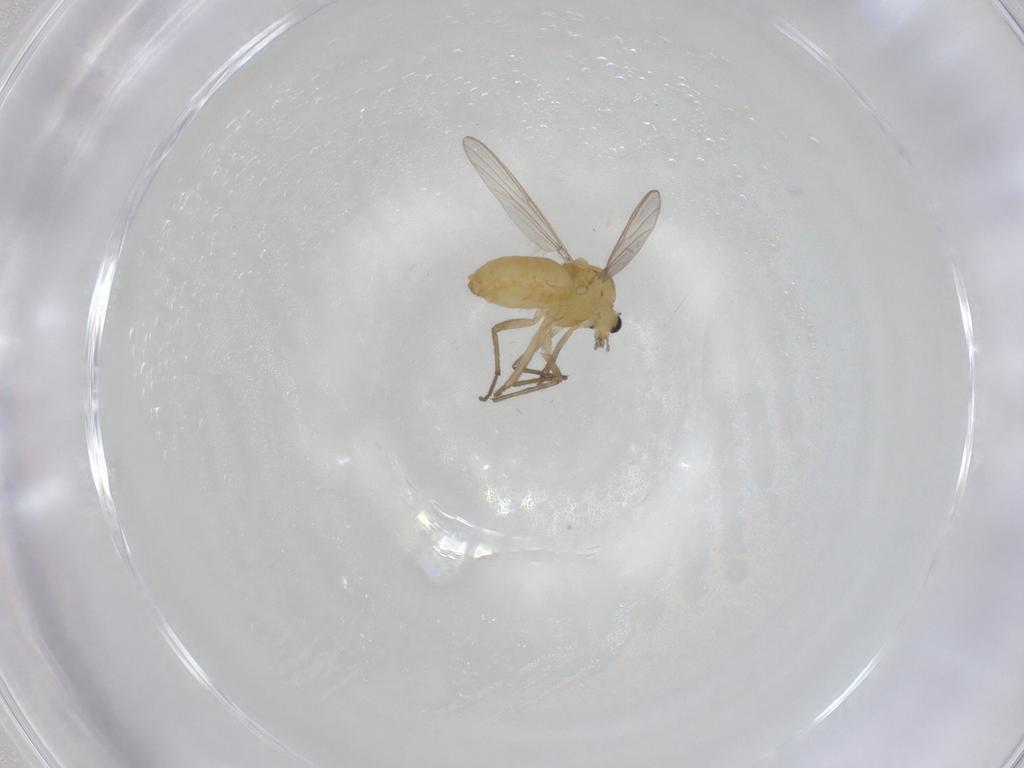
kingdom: Animalia
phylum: Arthropoda
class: Insecta
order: Diptera
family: Chironomidae
